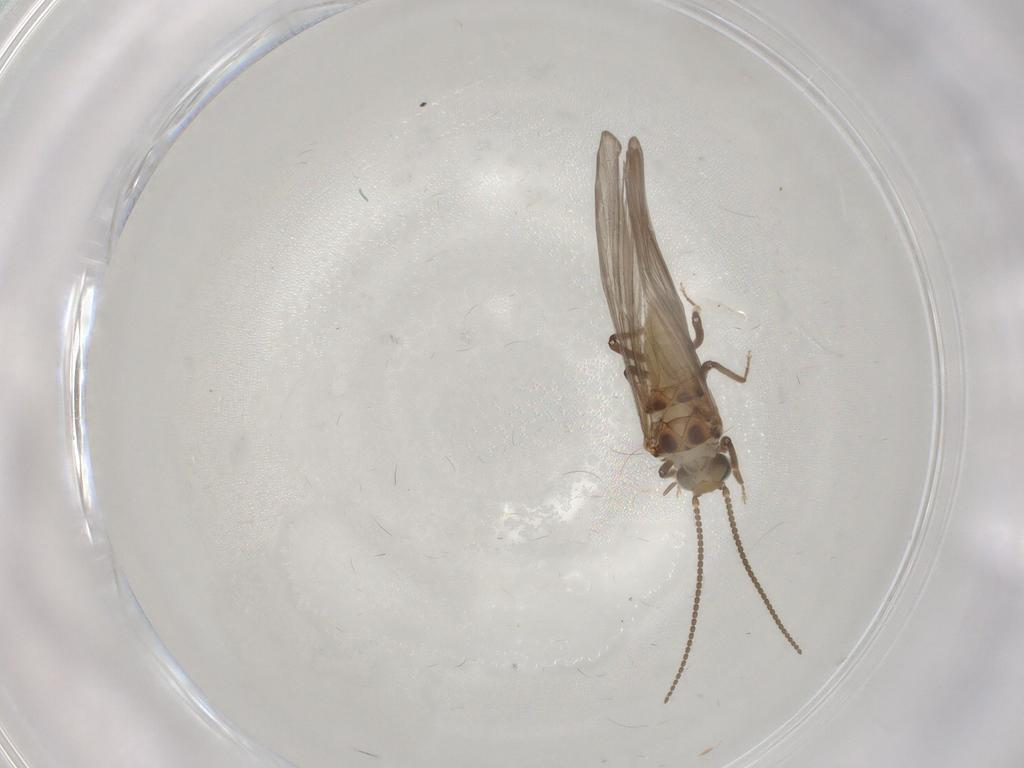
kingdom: Animalia
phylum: Arthropoda
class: Insecta
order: Neuroptera
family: Coniopterygidae
